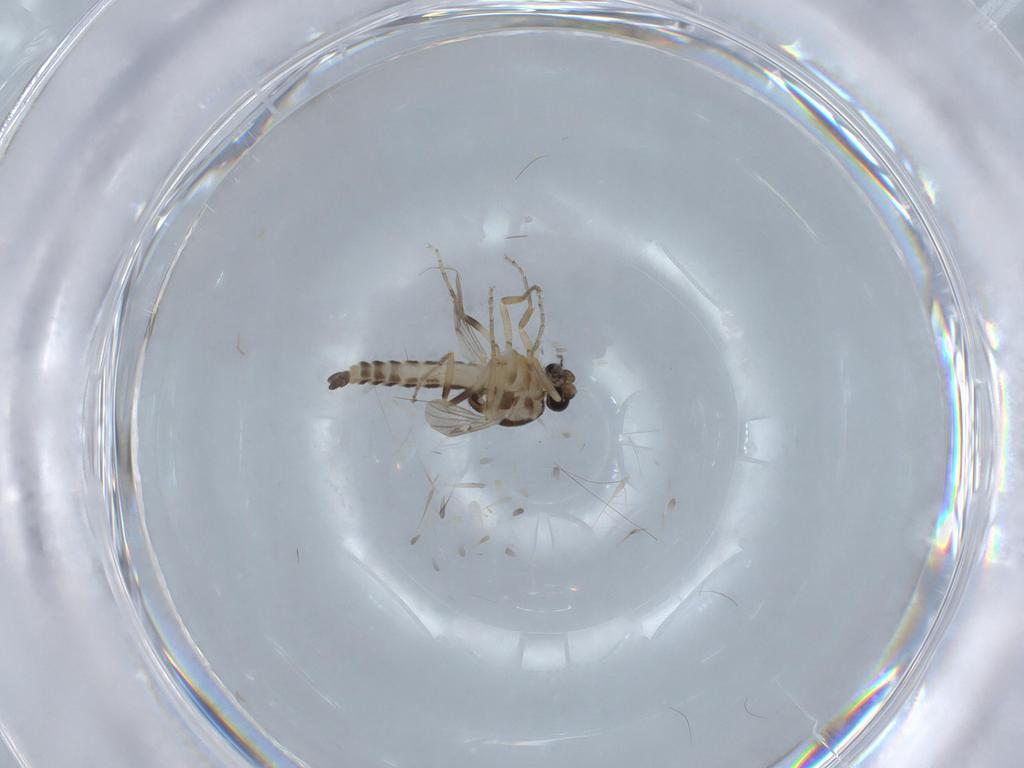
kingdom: Animalia
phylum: Arthropoda
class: Insecta
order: Diptera
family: Ceratopogonidae
